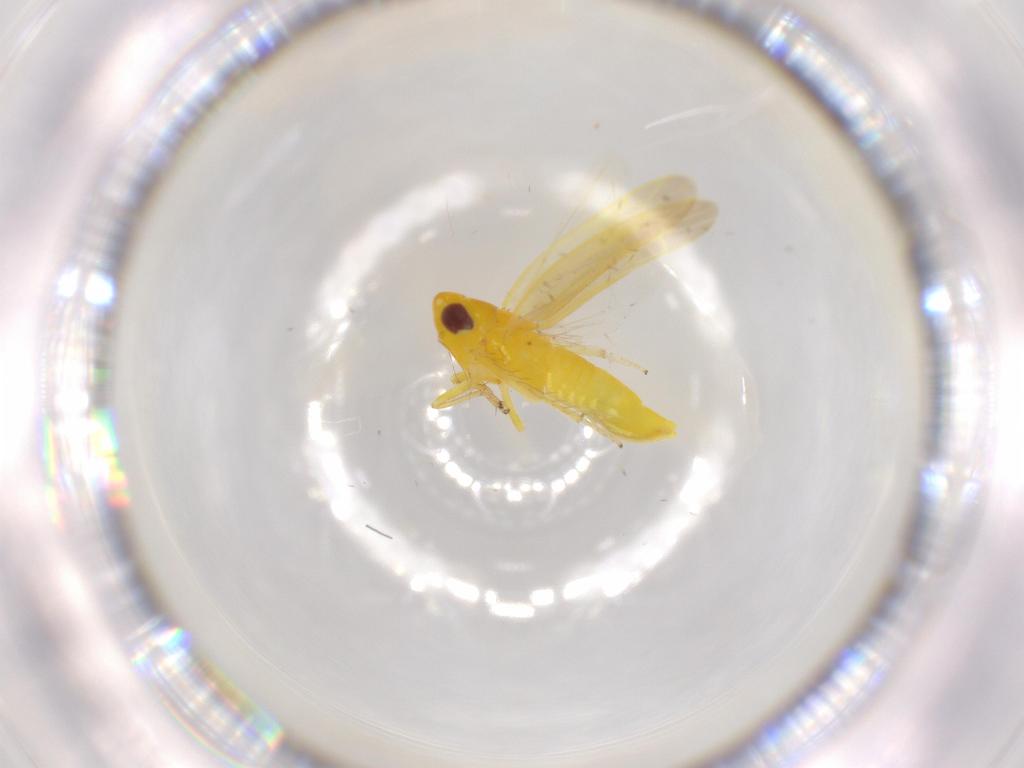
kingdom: Animalia
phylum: Arthropoda
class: Insecta
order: Hemiptera
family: Cicadellidae
